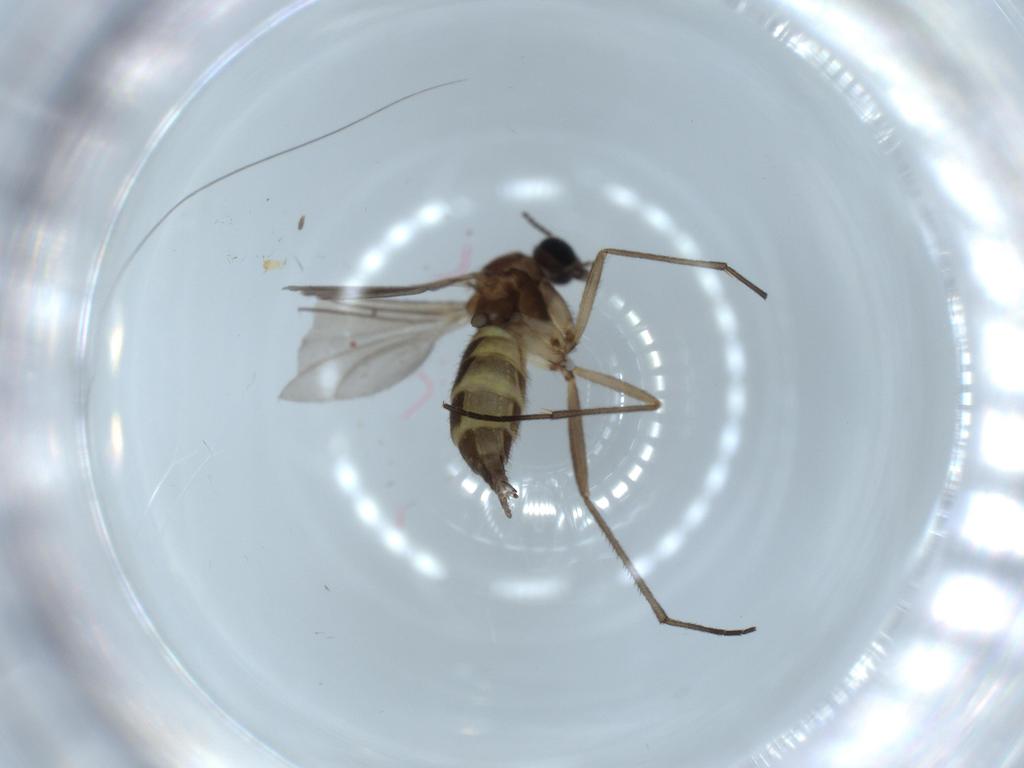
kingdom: Animalia
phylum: Arthropoda
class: Insecta
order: Diptera
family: Sciaridae
